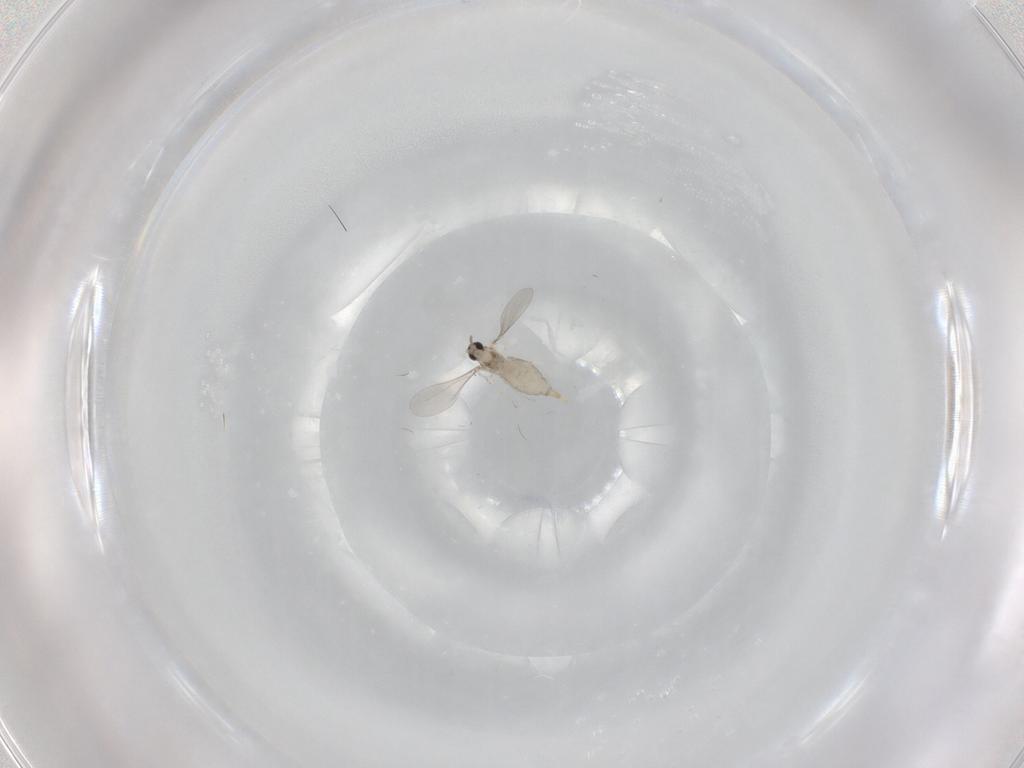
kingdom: Animalia
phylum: Arthropoda
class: Insecta
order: Diptera
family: Cecidomyiidae
